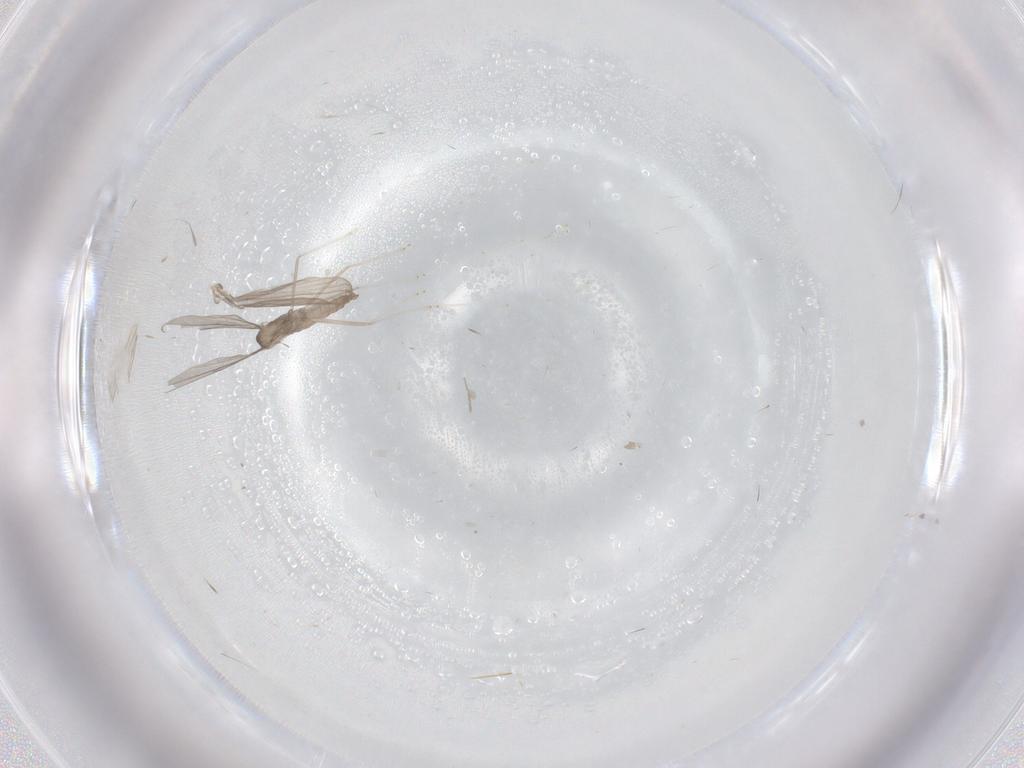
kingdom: Animalia
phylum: Arthropoda
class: Insecta
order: Diptera
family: Cecidomyiidae
